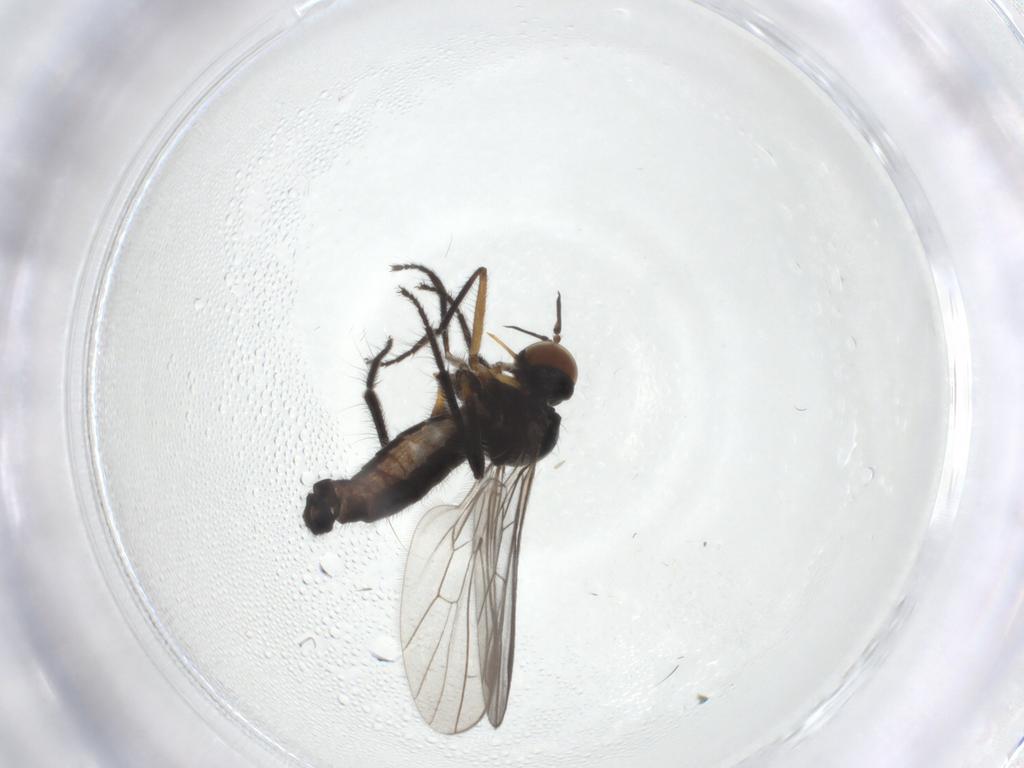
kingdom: Animalia
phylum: Arthropoda
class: Insecta
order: Diptera
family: Empididae
